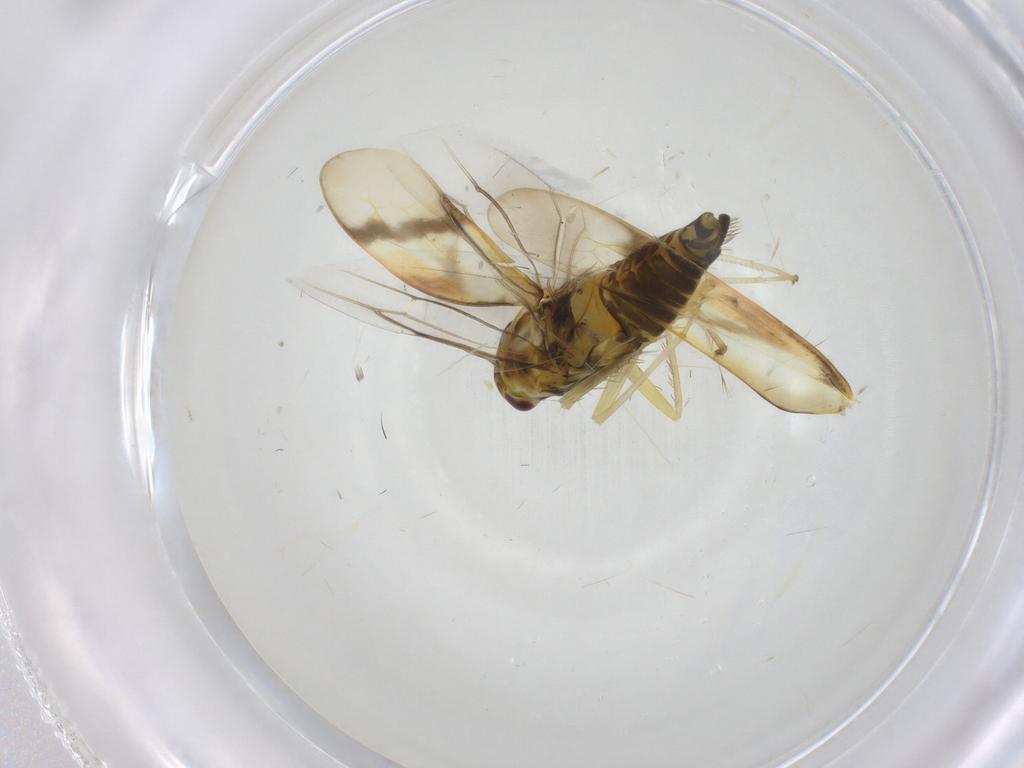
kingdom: Animalia
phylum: Arthropoda
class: Insecta
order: Hemiptera
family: Cicadellidae
